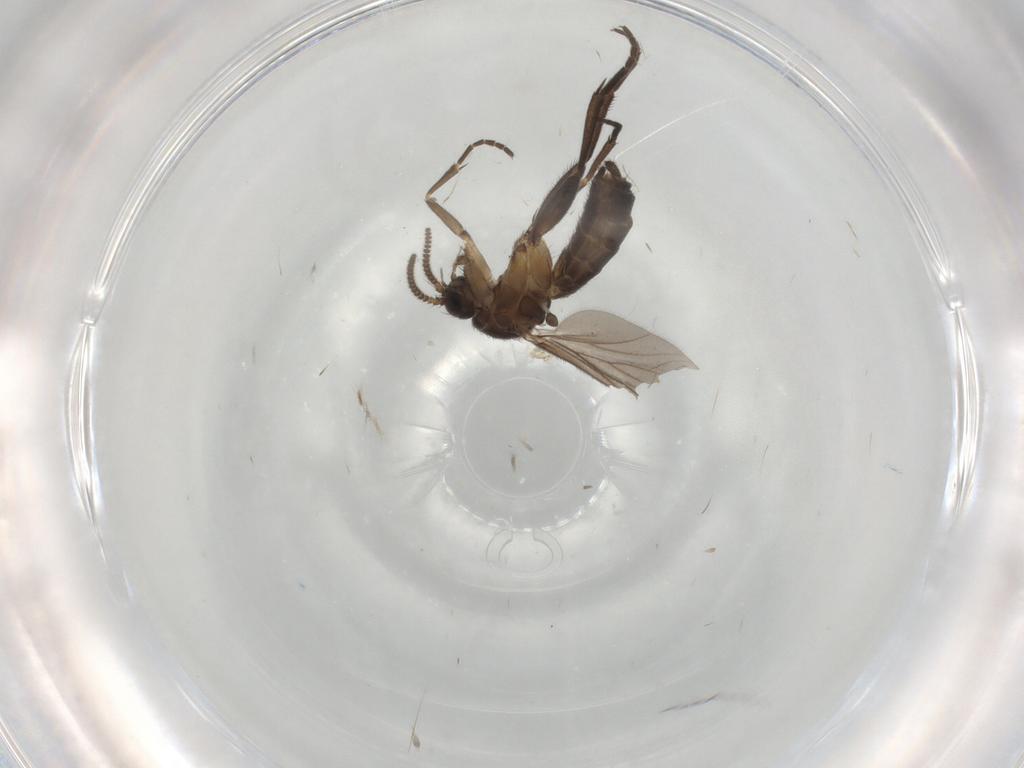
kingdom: Animalia
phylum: Arthropoda
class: Insecta
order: Diptera
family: Mycetophilidae
